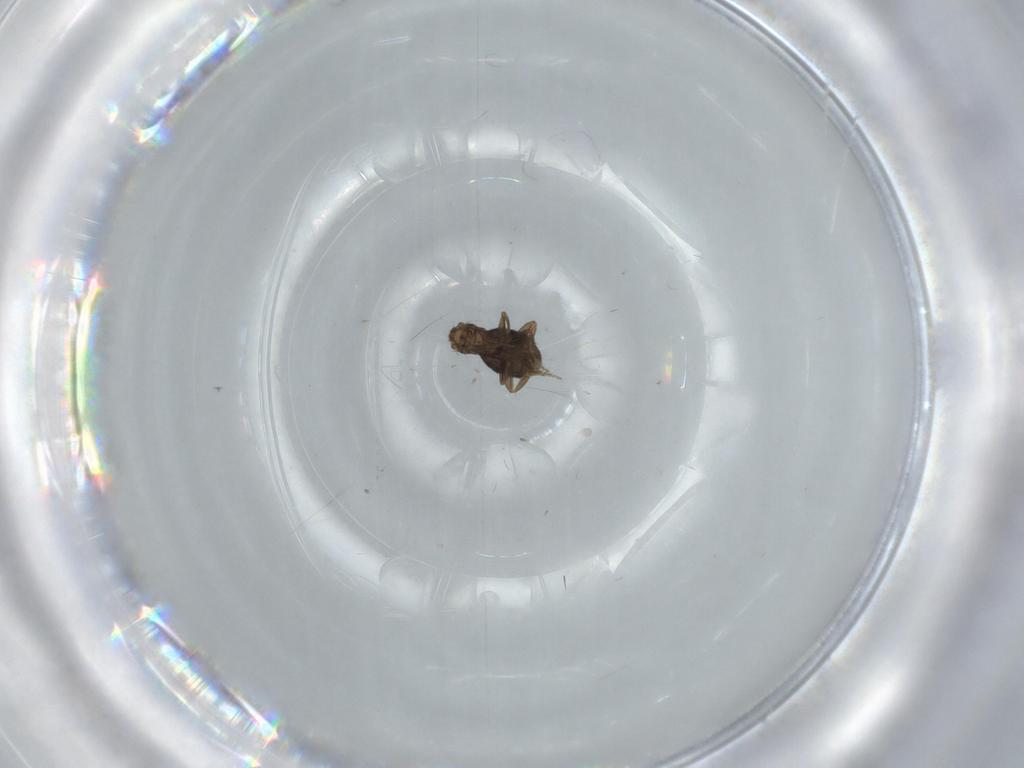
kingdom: Animalia
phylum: Arthropoda
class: Insecta
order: Diptera
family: Phoridae
